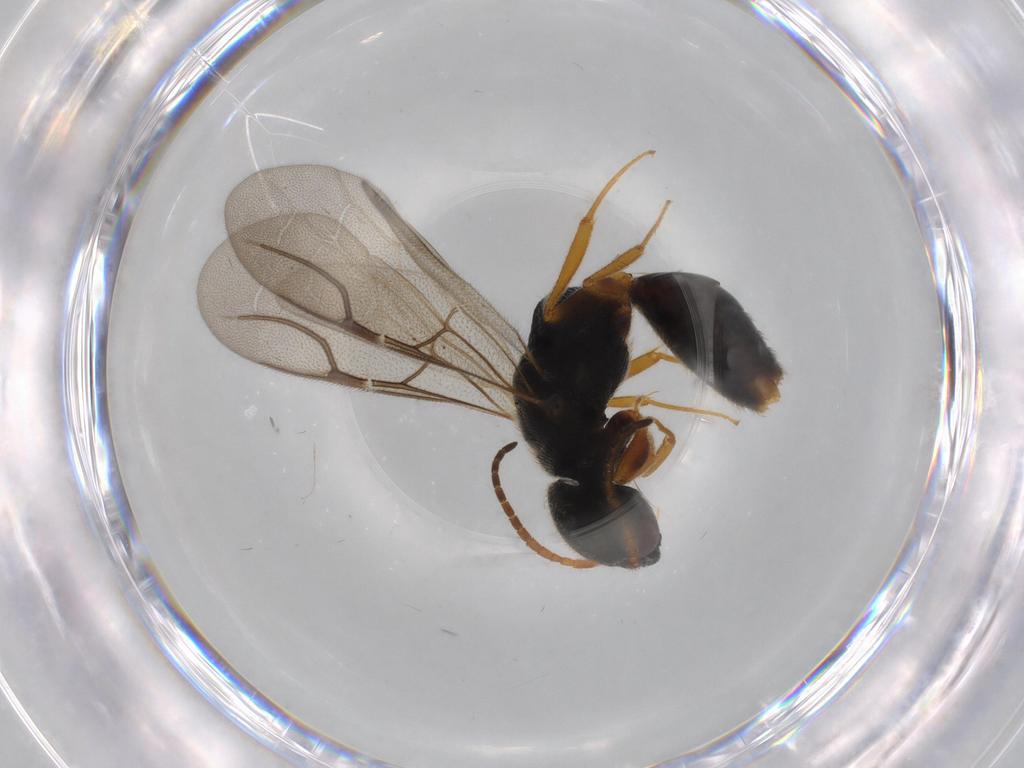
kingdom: Animalia
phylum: Arthropoda
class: Insecta
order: Hymenoptera
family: Bethylidae
